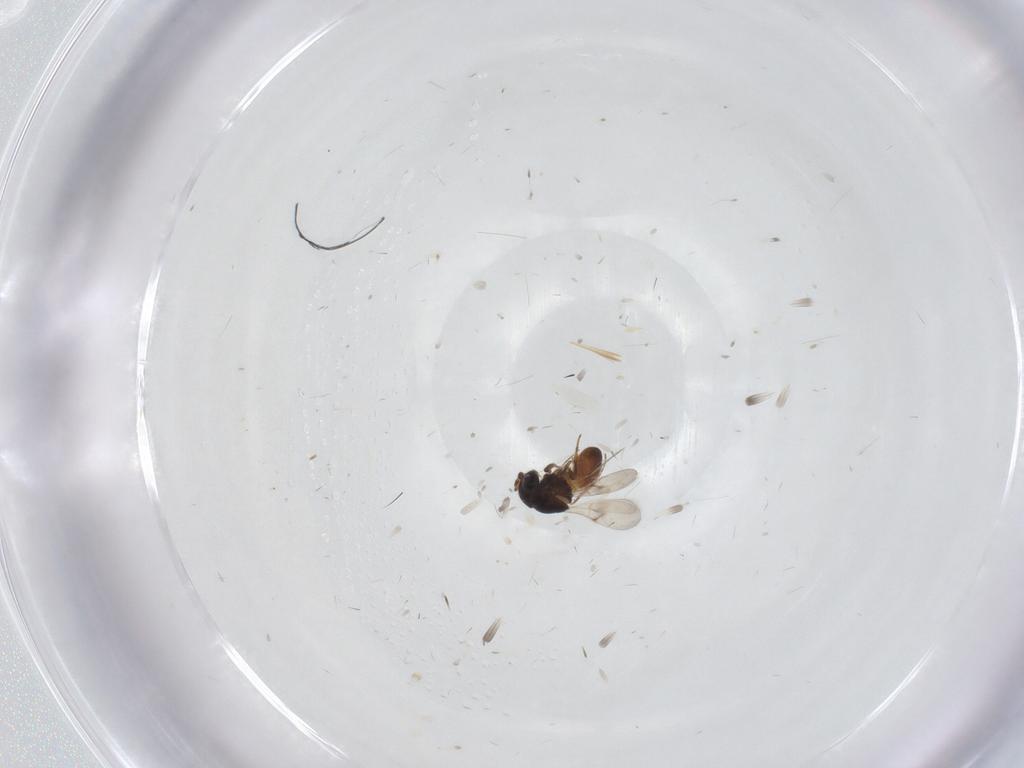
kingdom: Animalia
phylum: Arthropoda
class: Insecta
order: Hymenoptera
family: Scelionidae
